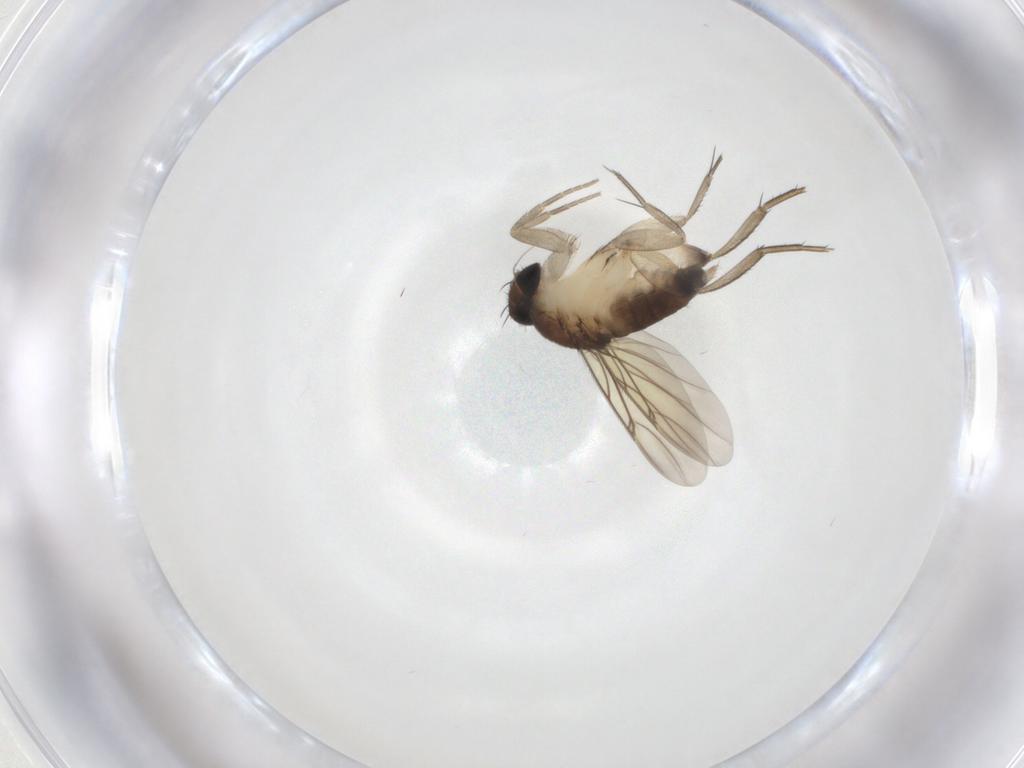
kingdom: Animalia
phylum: Arthropoda
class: Insecta
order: Diptera
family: Phoridae
